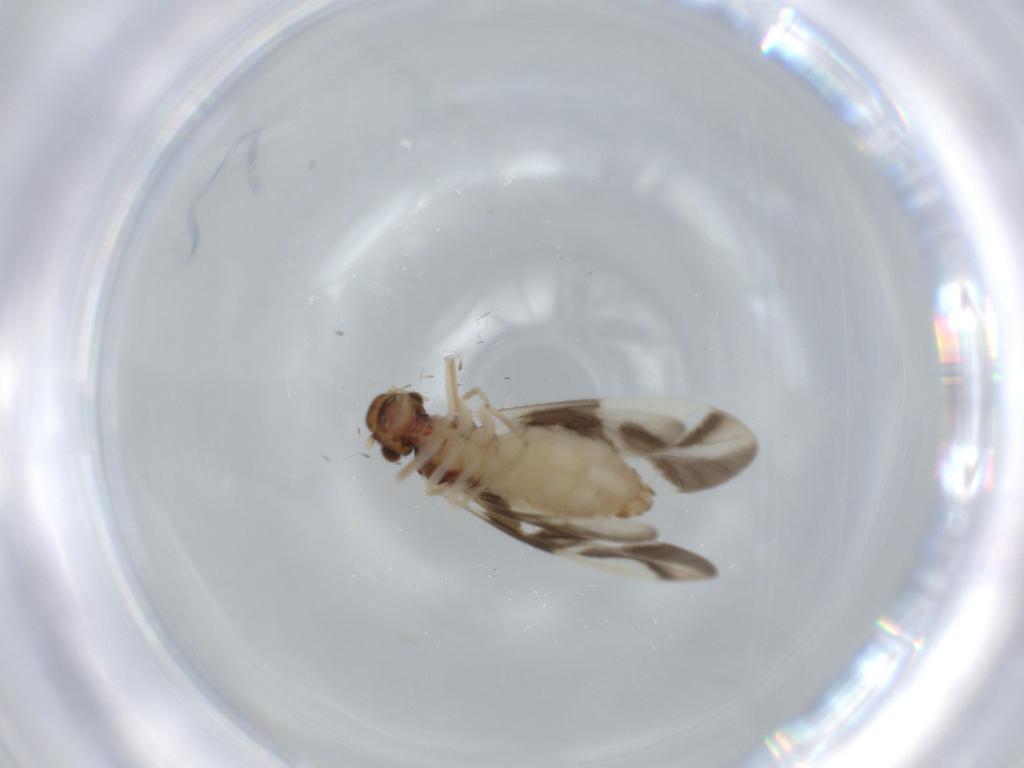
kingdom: Animalia
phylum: Arthropoda
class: Insecta
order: Psocodea
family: Caeciliusidae
